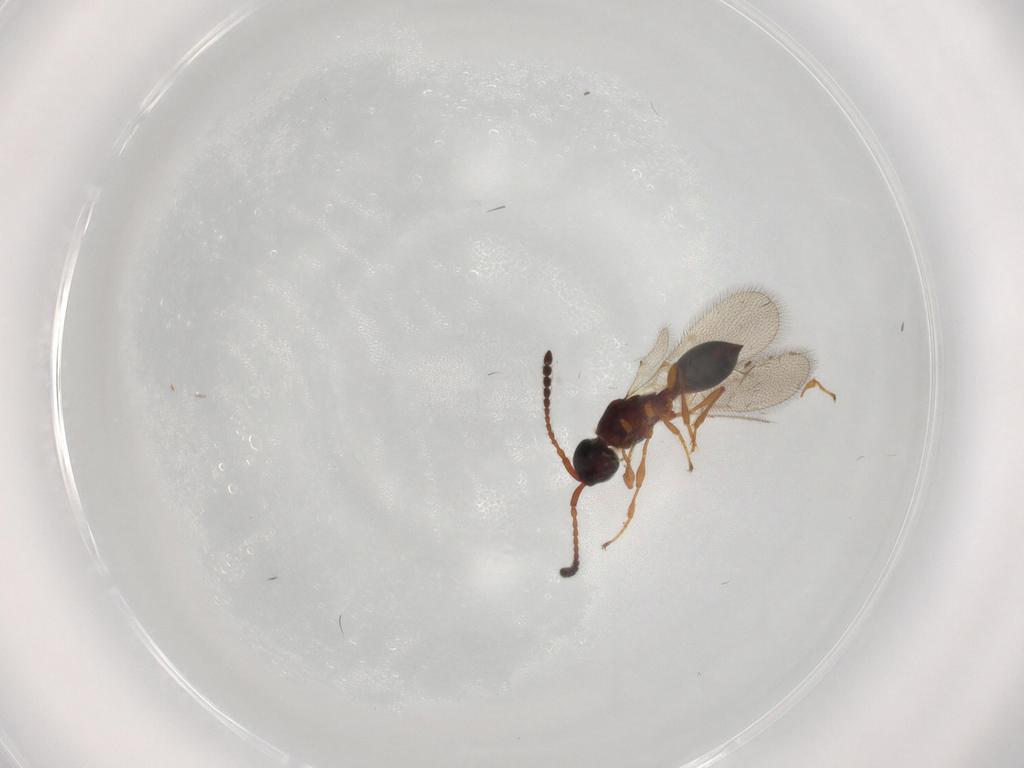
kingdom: Animalia
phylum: Arthropoda
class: Insecta
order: Hymenoptera
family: Diapriidae
